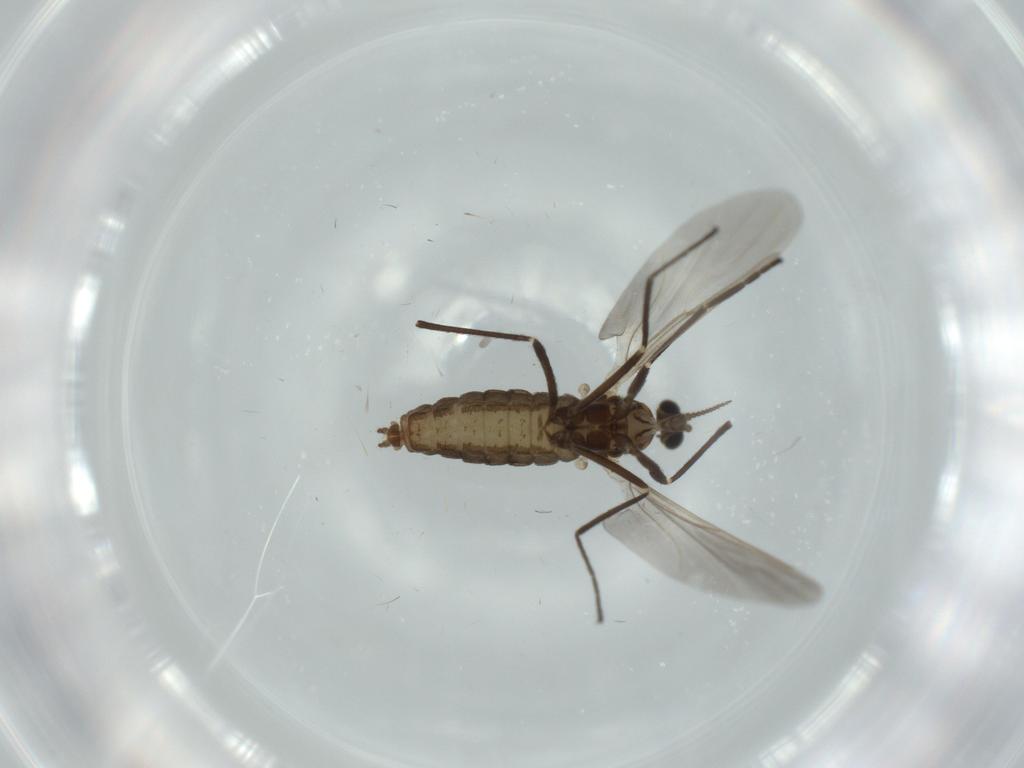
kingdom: Animalia
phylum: Arthropoda
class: Insecta
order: Diptera
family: Cecidomyiidae
